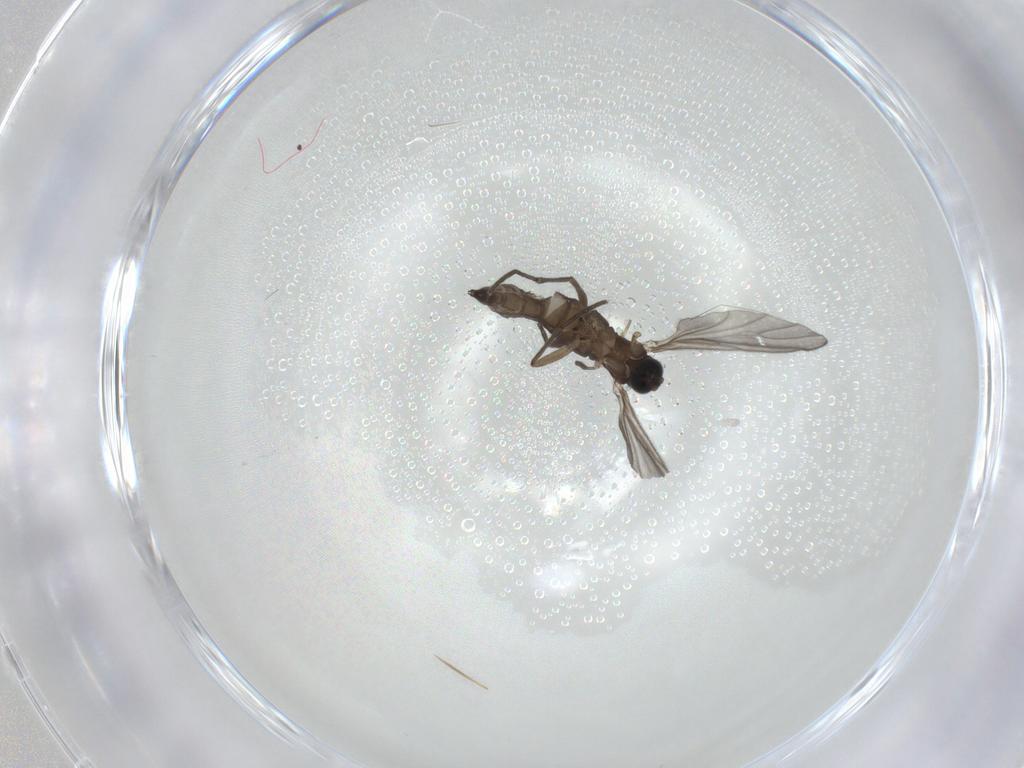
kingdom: Animalia
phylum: Arthropoda
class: Insecta
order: Diptera
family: Sciaridae
